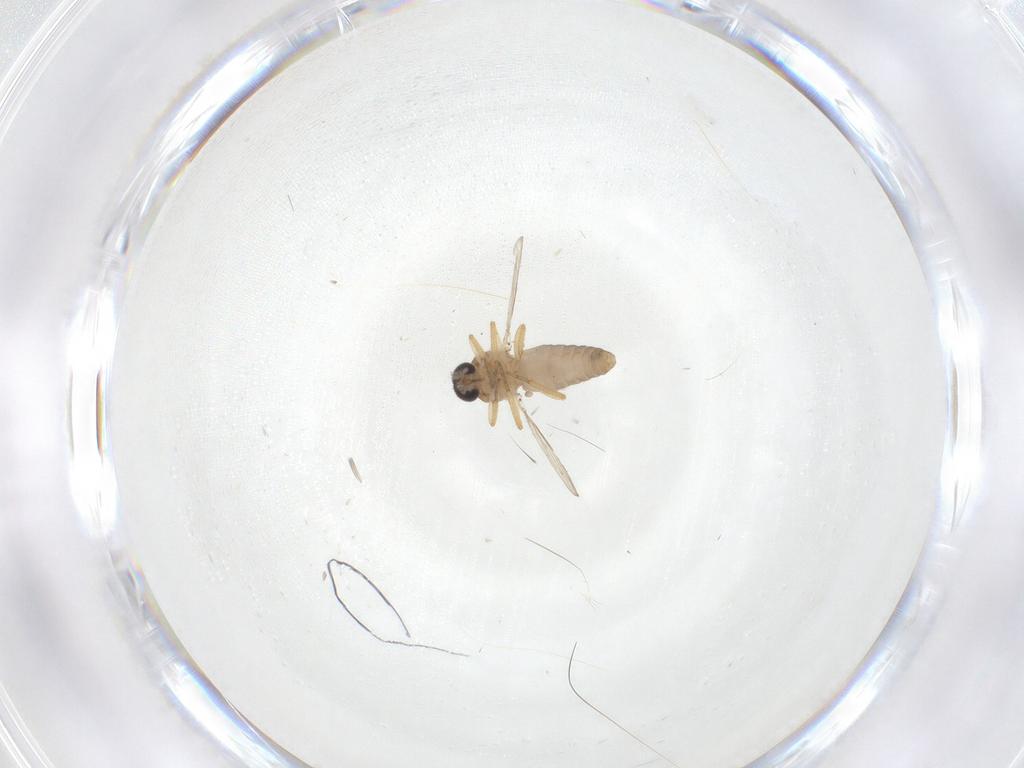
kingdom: Animalia
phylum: Arthropoda
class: Insecta
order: Diptera
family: Ceratopogonidae
